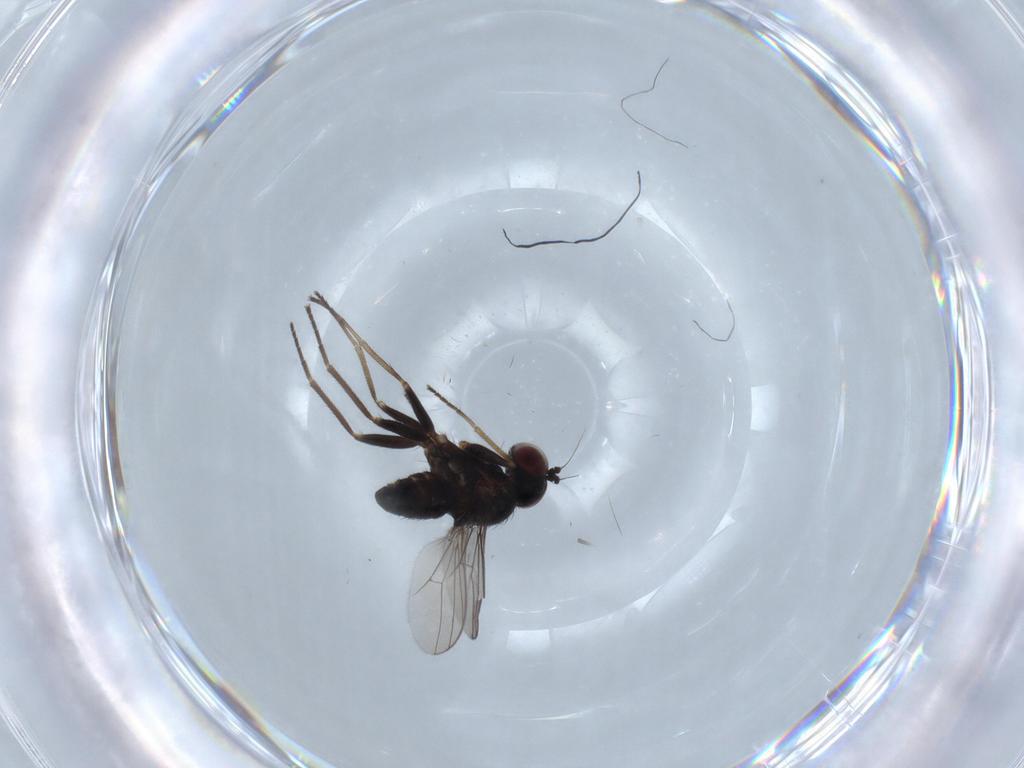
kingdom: Animalia
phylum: Arthropoda
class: Insecta
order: Diptera
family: Dolichopodidae
